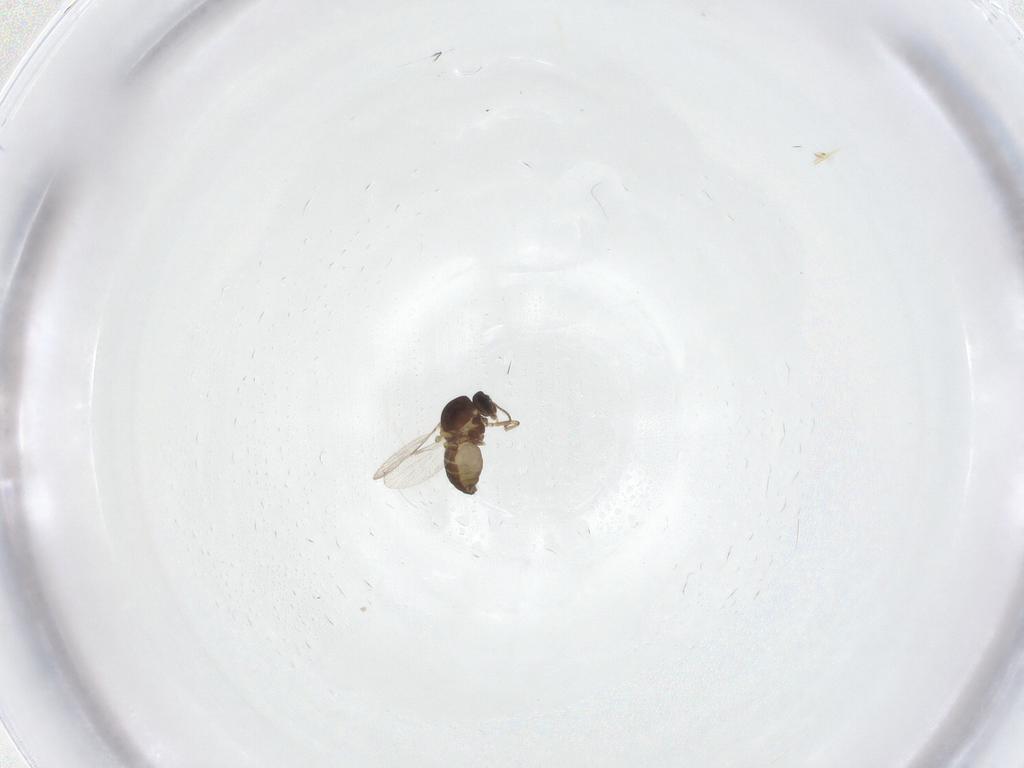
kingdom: Animalia
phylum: Arthropoda
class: Insecta
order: Diptera
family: Ceratopogonidae
